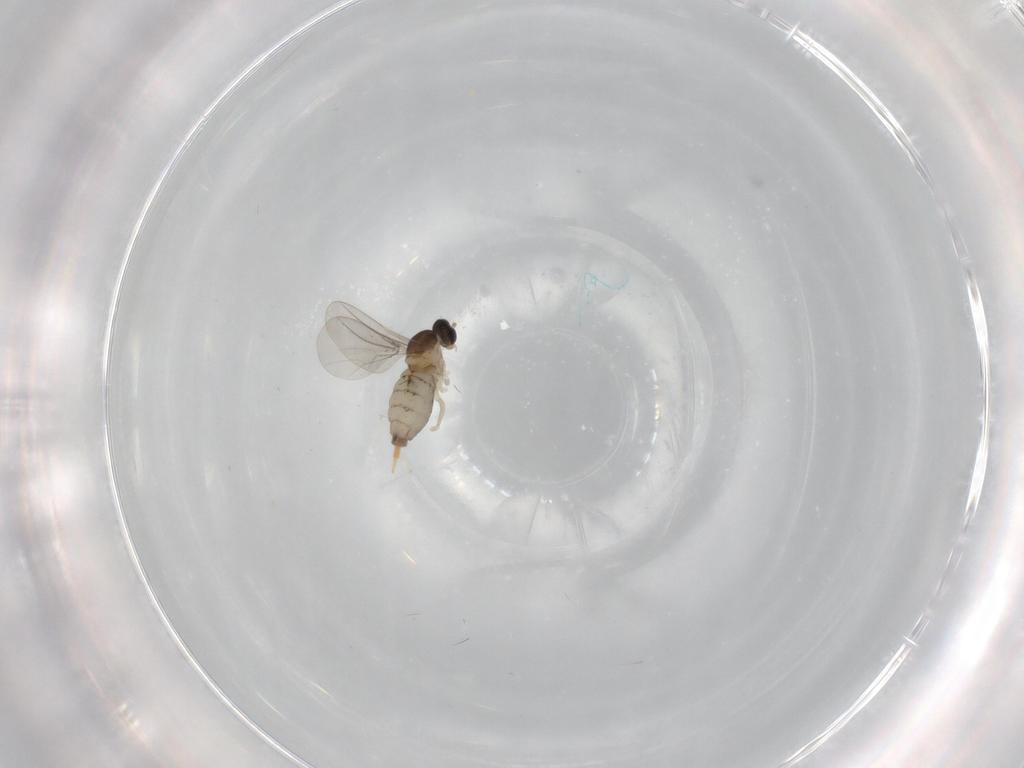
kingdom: Animalia
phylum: Arthropoda
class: Insecta
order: Diptera
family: Cecidomyiidae
